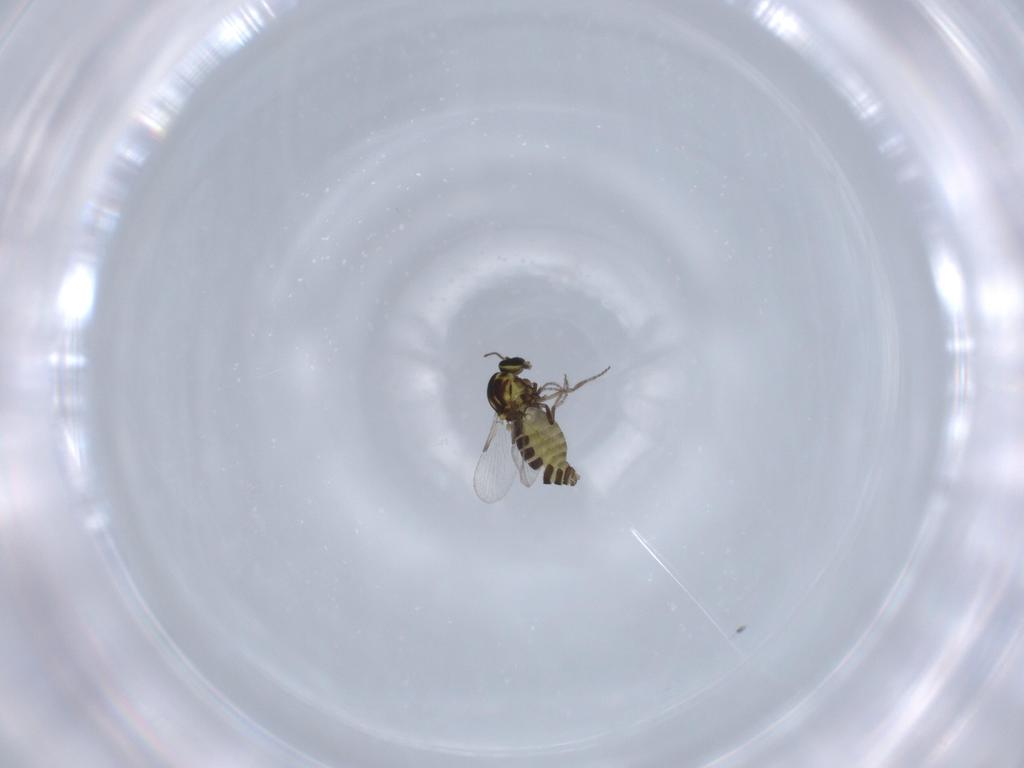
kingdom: Animalia
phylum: Arthropoda
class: Insecta
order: Diptera
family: Ceratopogonidae
